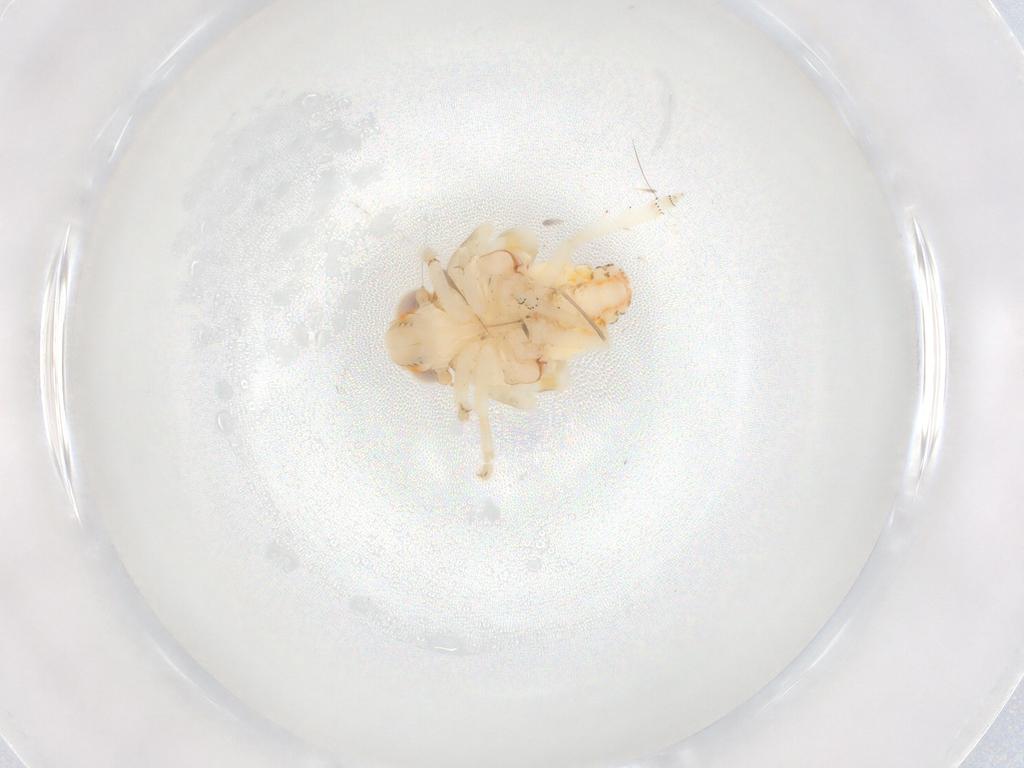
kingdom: Animalia
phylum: Arthropoda
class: Insecta
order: Hemiptera
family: Nogodinidae
